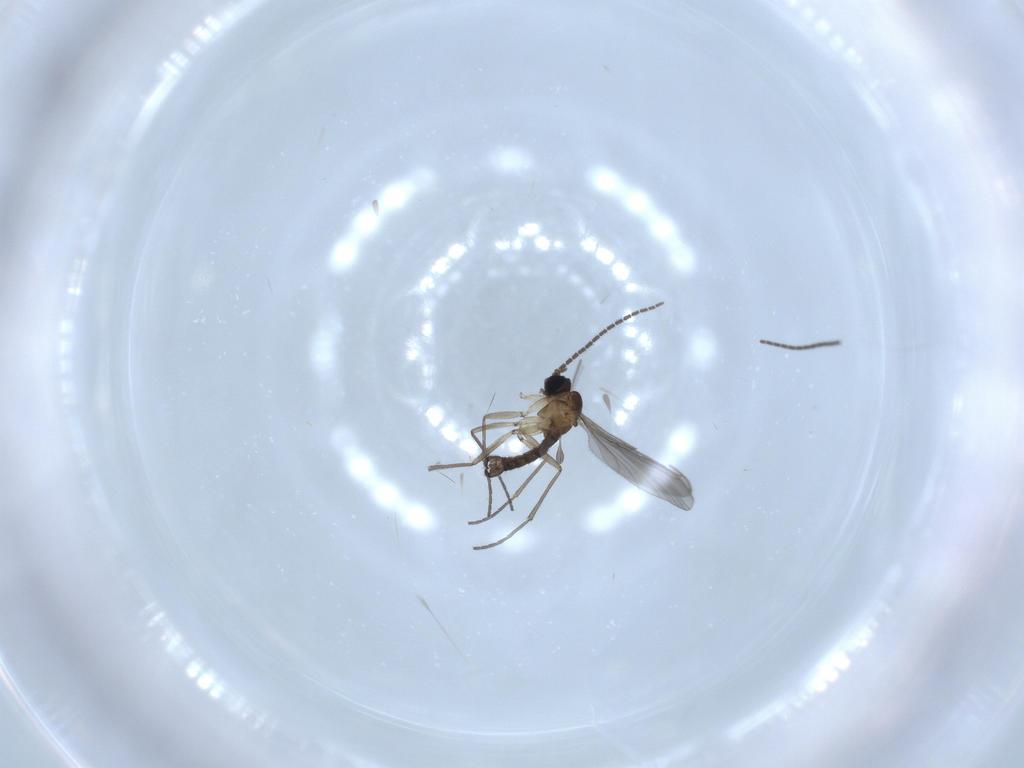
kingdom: Animalia
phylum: Arthropoda
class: Insecta
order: Diptera
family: Sciaridae
